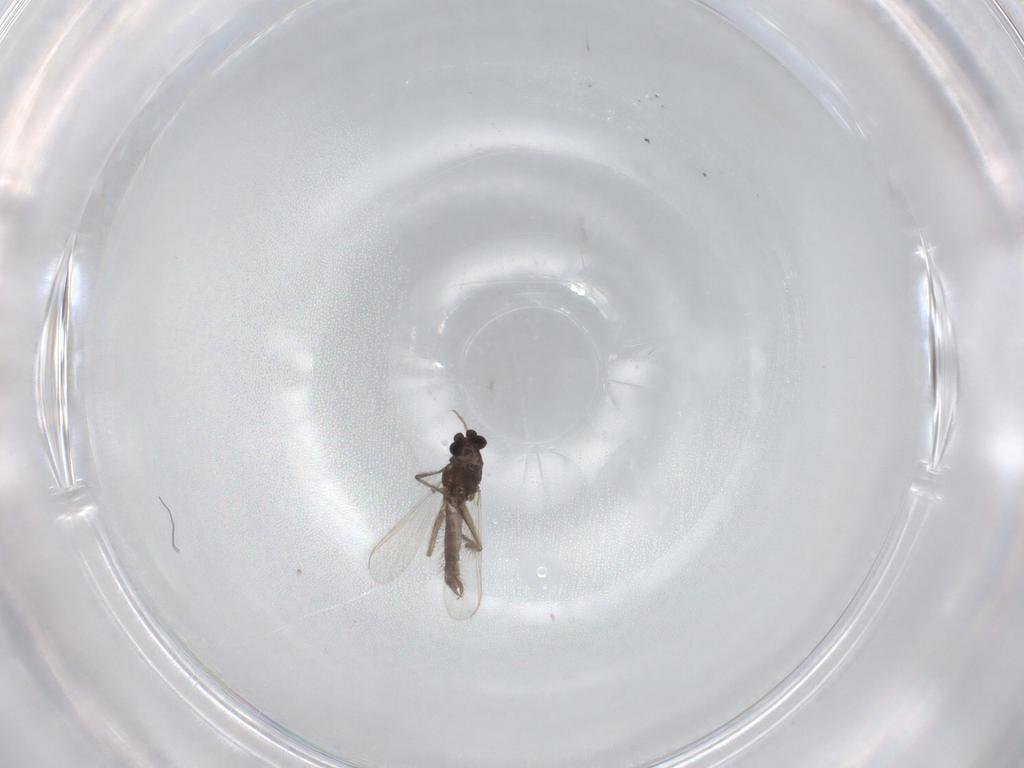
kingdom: Animalia
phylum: Arthropoda
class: Insecta
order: Diptera
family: Chironomidae
